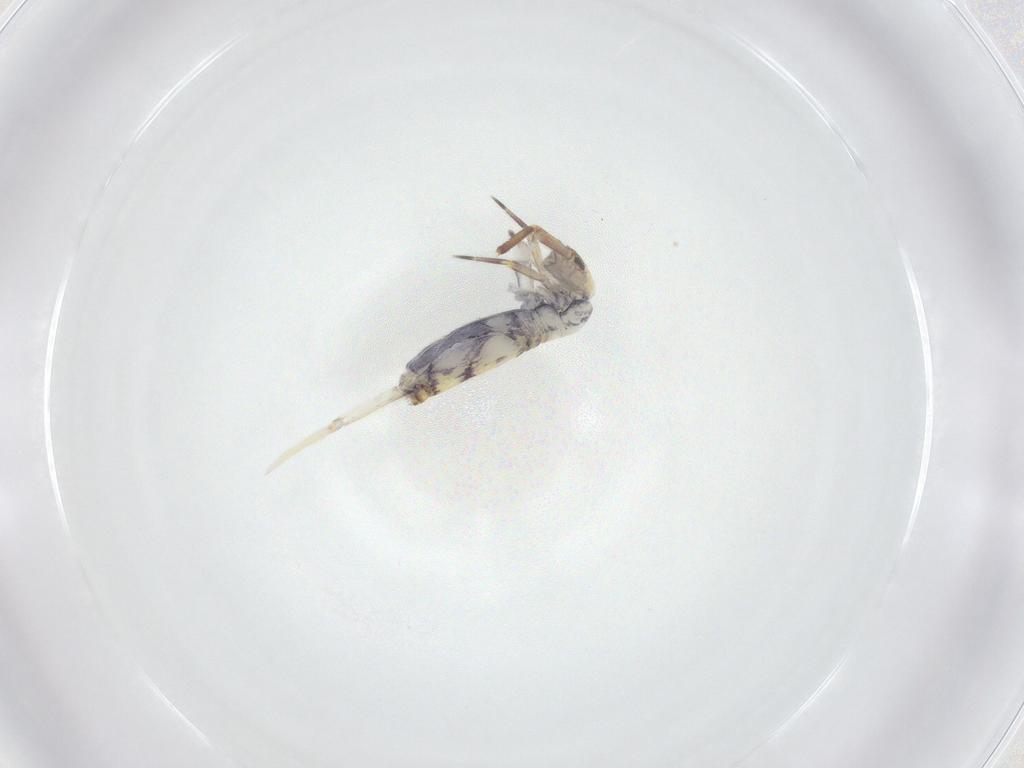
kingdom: Animalia
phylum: Arthropoda
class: Collembola
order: Entomobryomorpha
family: Entomobryidae
